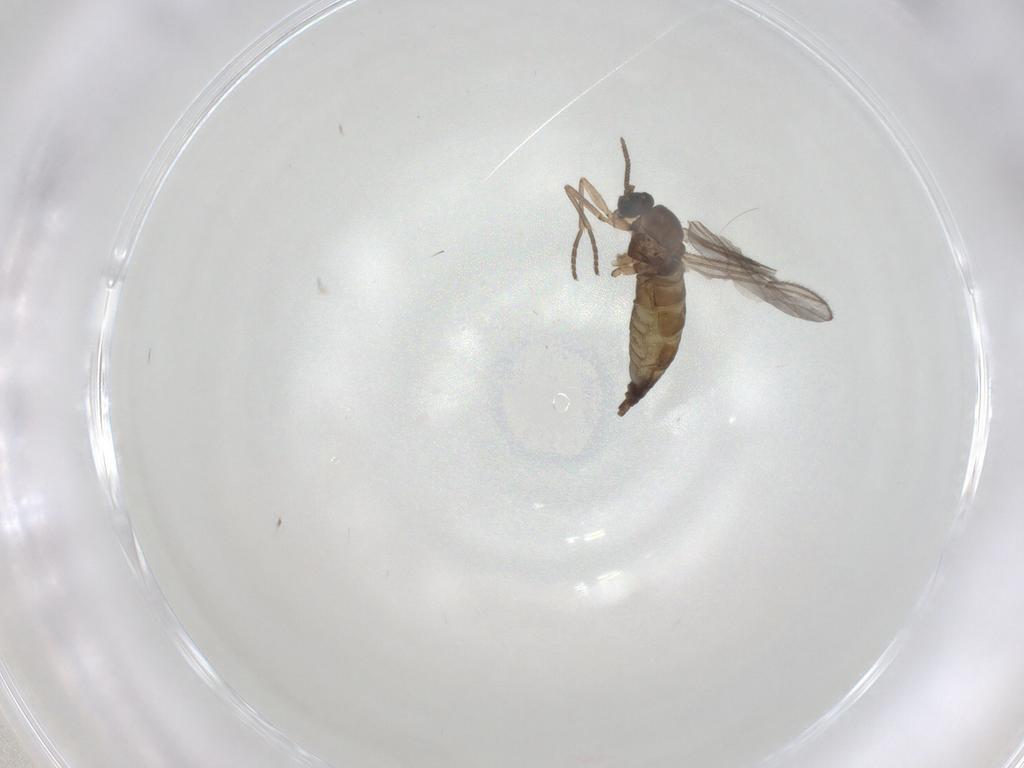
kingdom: Animalia
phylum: Arthropoda
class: Insecta
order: Diptera
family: Sciaridae
